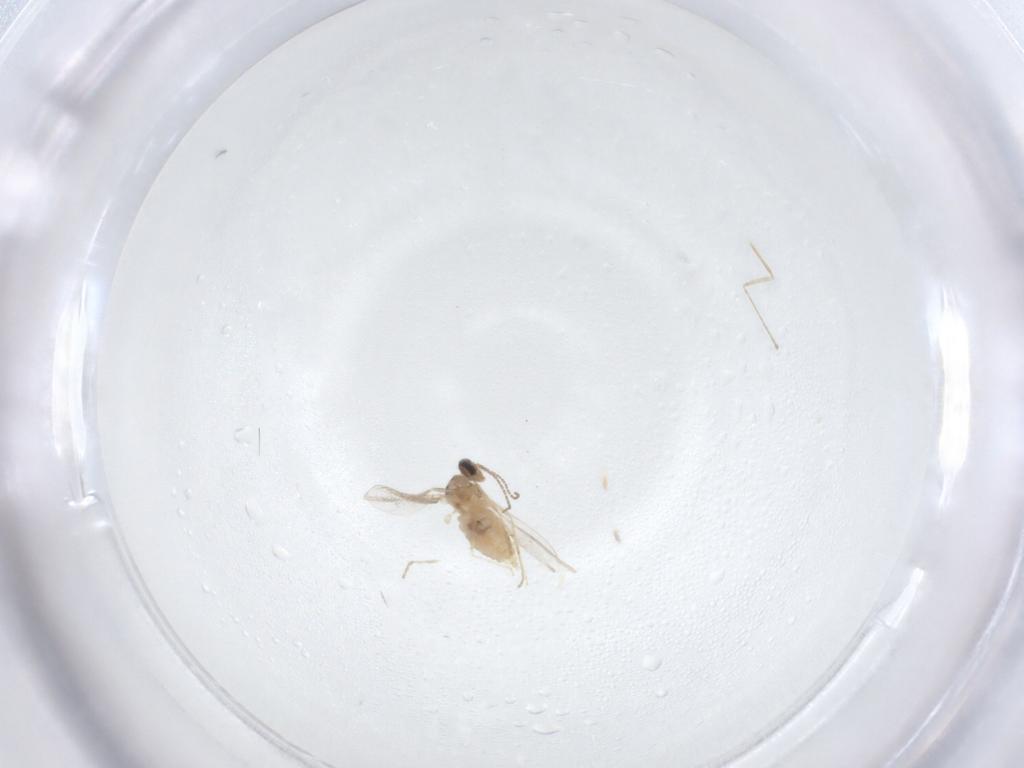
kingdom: Animalia
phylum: Arthropoda
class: Insecta
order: Diptera
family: Cecidomyiidae
